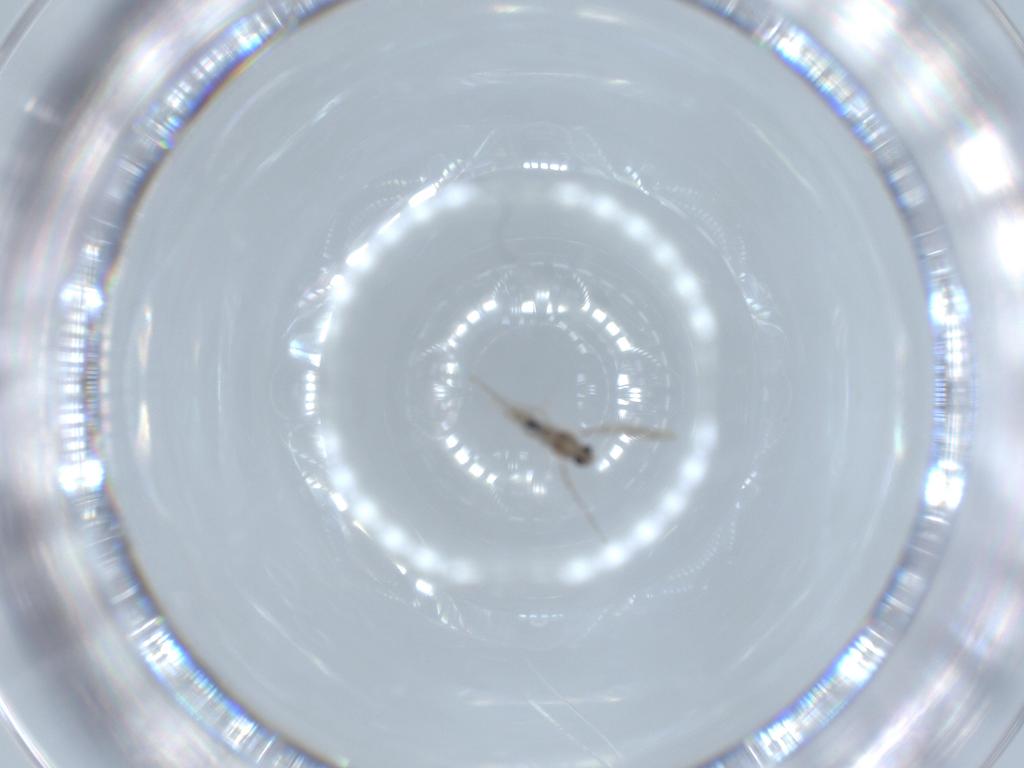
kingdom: Animalia
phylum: Arthropoda
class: Insecta
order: Diptera
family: Cecidomyiidae
